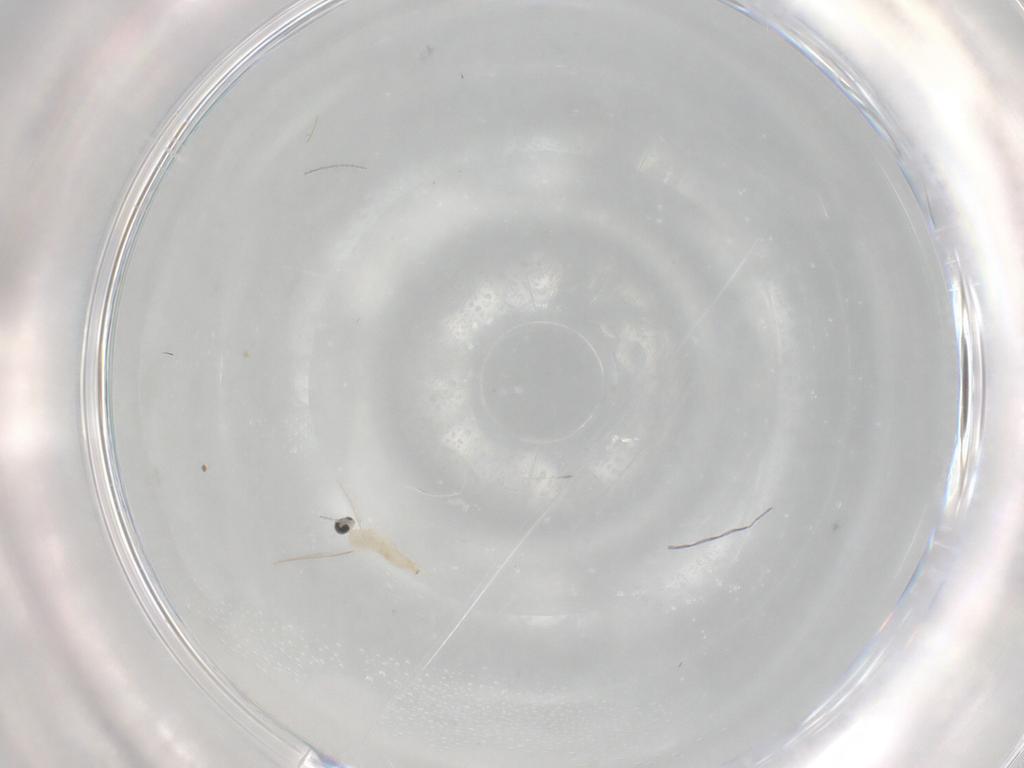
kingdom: Animalia
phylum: Arthropoda
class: Insecta
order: Diptera
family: Cecidomyiidae
